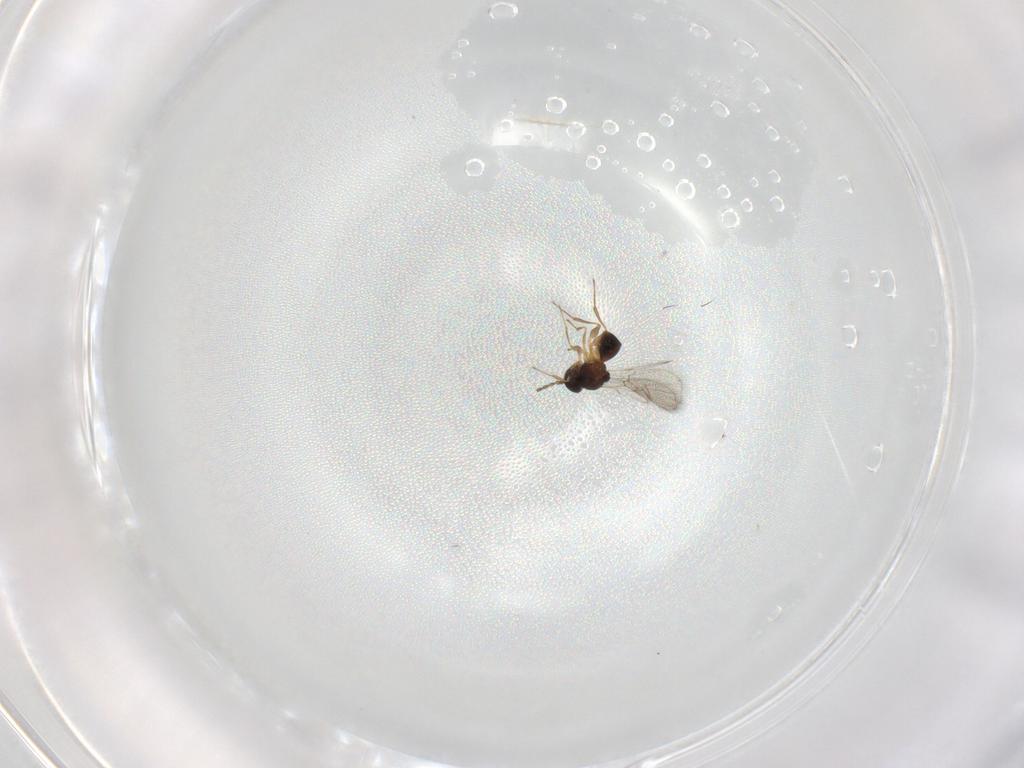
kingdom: Animalia
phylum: Arthropoda
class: Insecta
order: Hymenoptera
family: Figitidae
